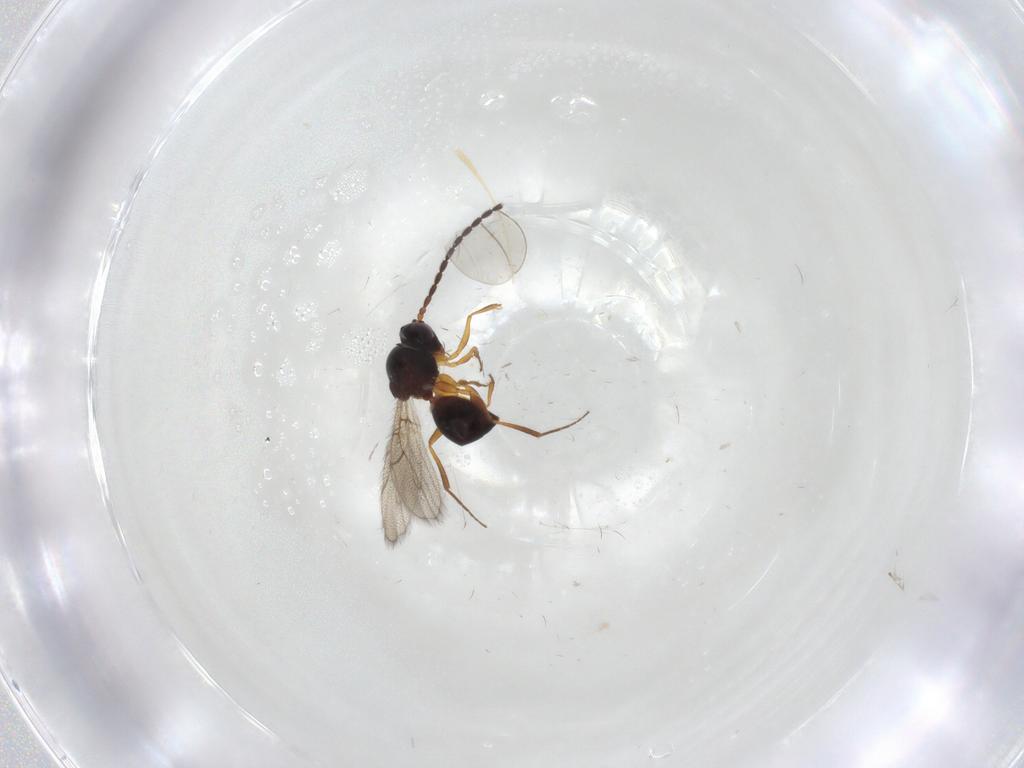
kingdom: Animalia
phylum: Arthropoda
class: Insecta
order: Hymenoptera
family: Figitidae
